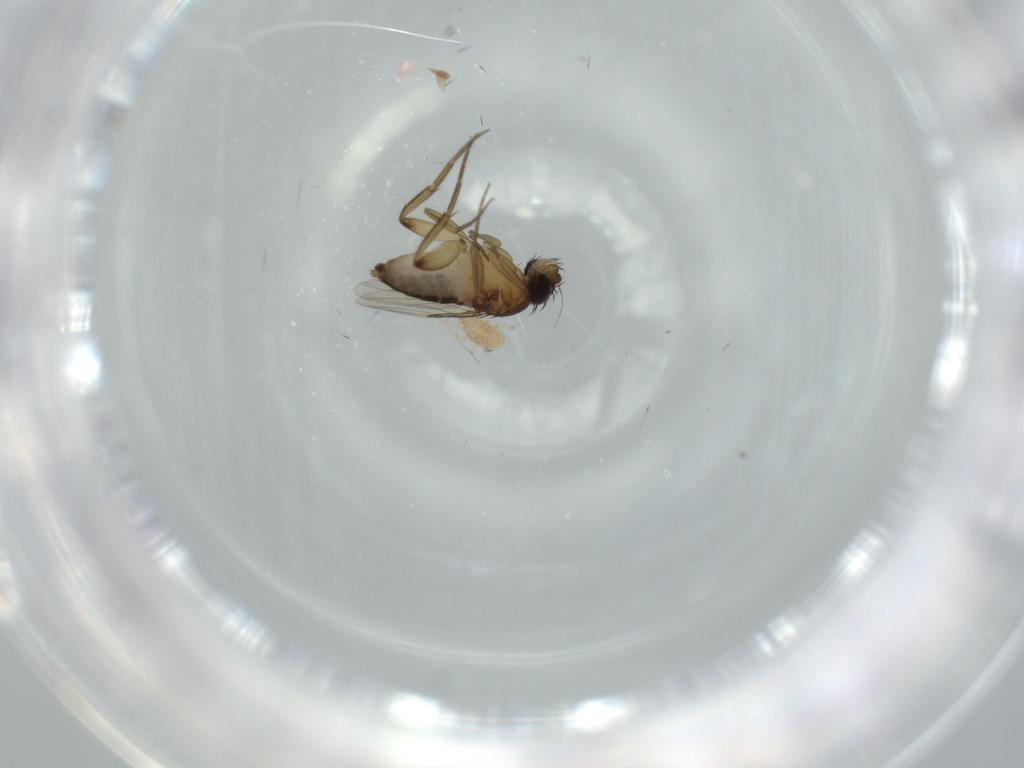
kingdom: Animalia
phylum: Arthropoda
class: Insecta
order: Diptera
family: Phoridae
